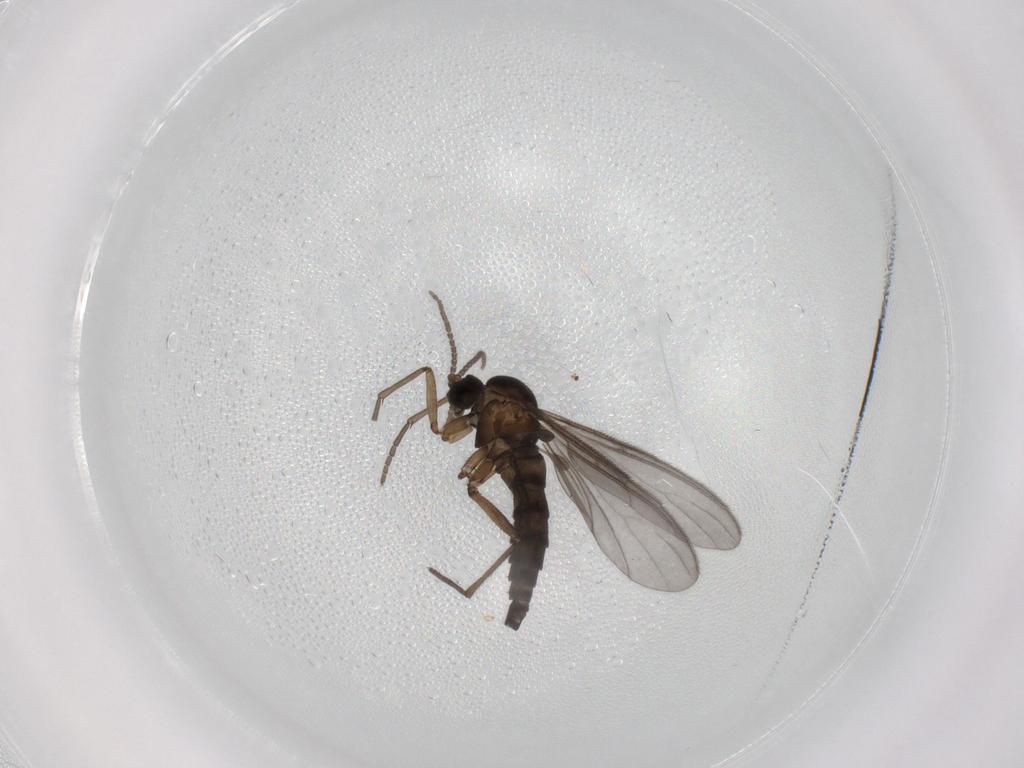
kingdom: Animalia
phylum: Arthropoda
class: Insecta
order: Diptera
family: Sciaridae
